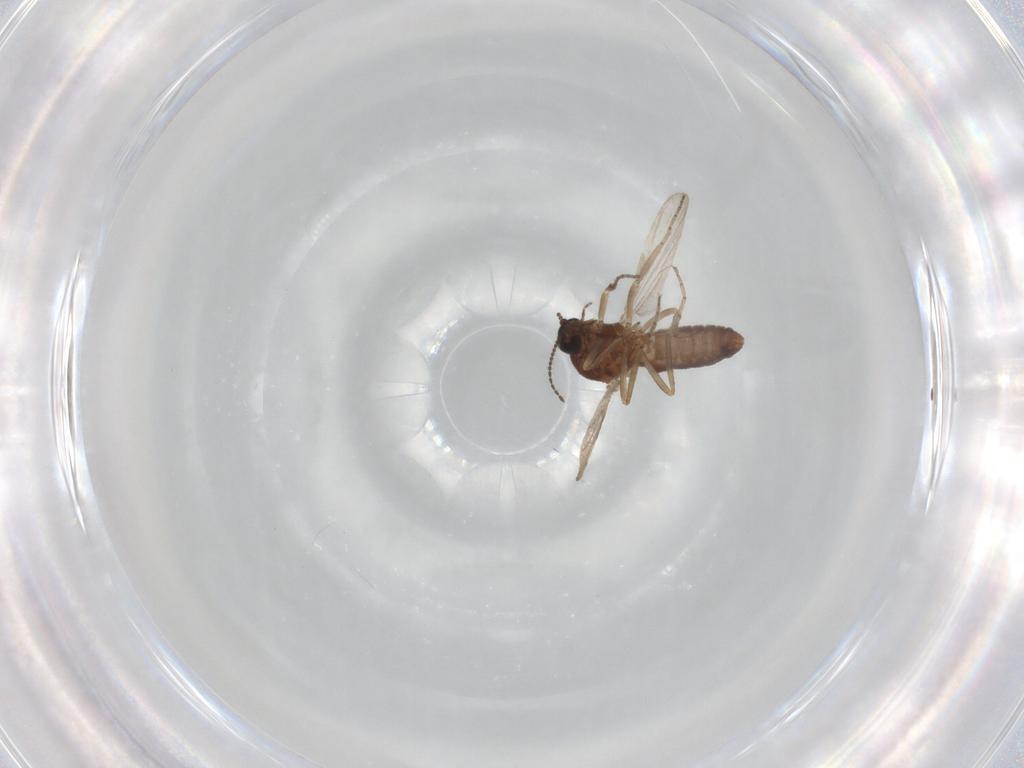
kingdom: Animalia
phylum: Arthropoda
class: Insecta
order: Diptera
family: Ceratopogonidae
